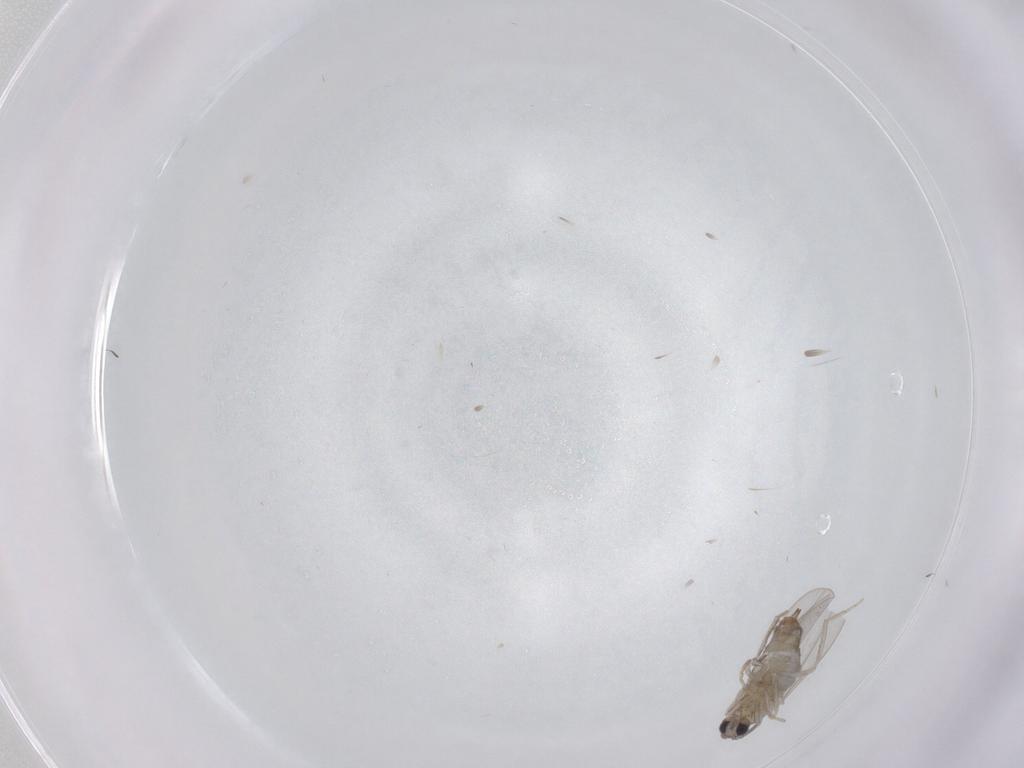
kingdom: Animalia
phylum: Arthropoda
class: Insecta
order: Diptera
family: Cecidomyiidae
